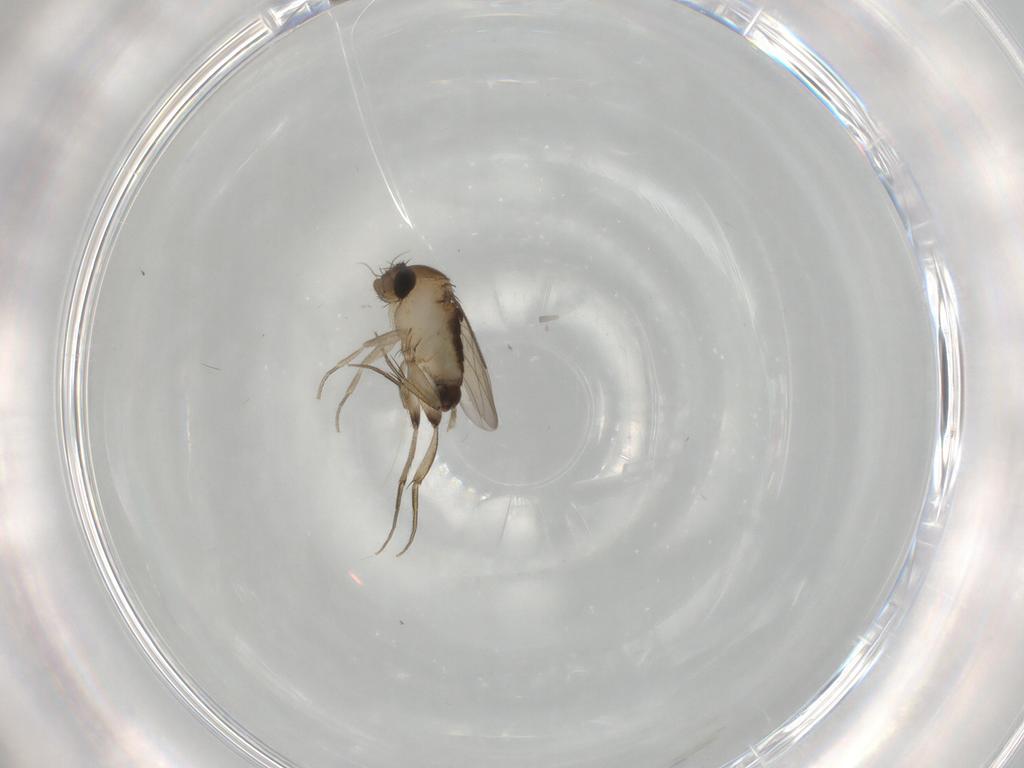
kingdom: Animalia
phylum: Arthropoda
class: Insecta
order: Diptera
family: Phoridae
